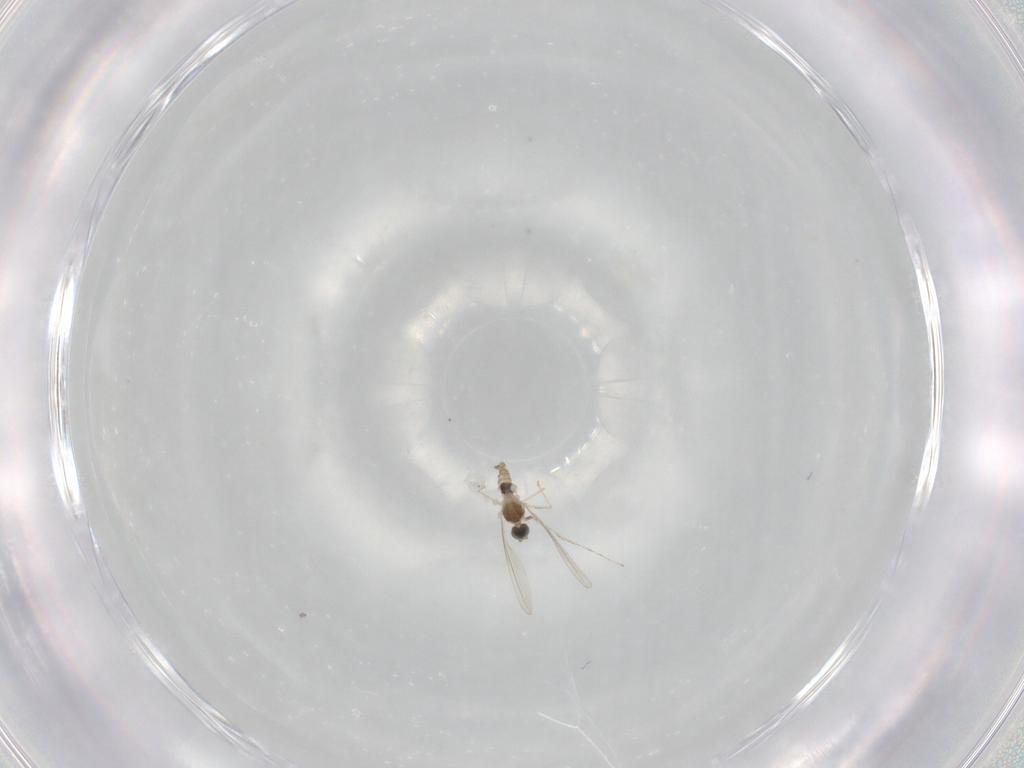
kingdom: Animalia
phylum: Arthropoda
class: Insecta
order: Diptera
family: Cecidomyiidae
